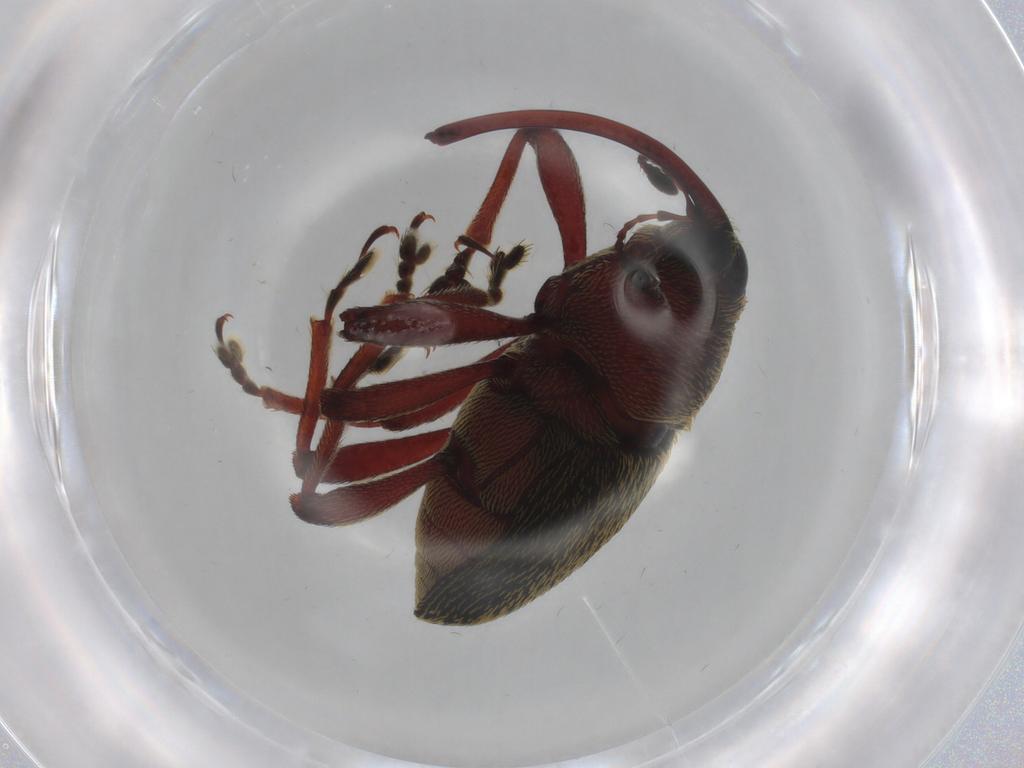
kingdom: Animalia
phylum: Arthropoda
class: Insecta
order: Coleoptera
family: Curculionidae
